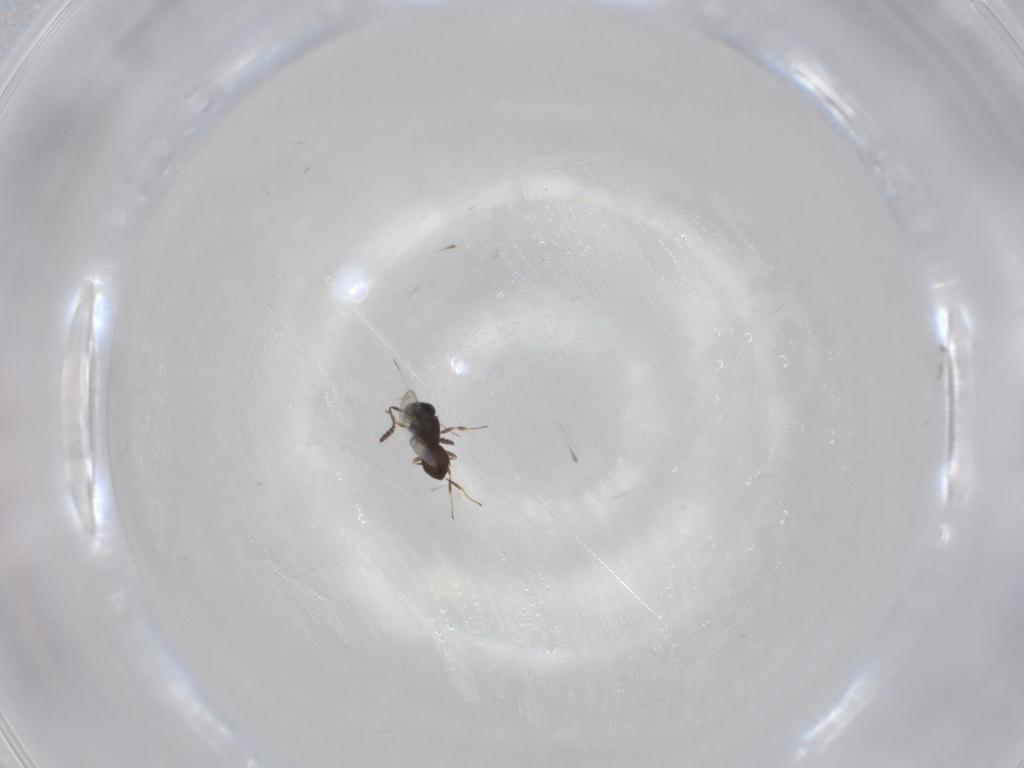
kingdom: Animalia
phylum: Arthropoda
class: Insecta
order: Hymenoptera
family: Scelionidae
